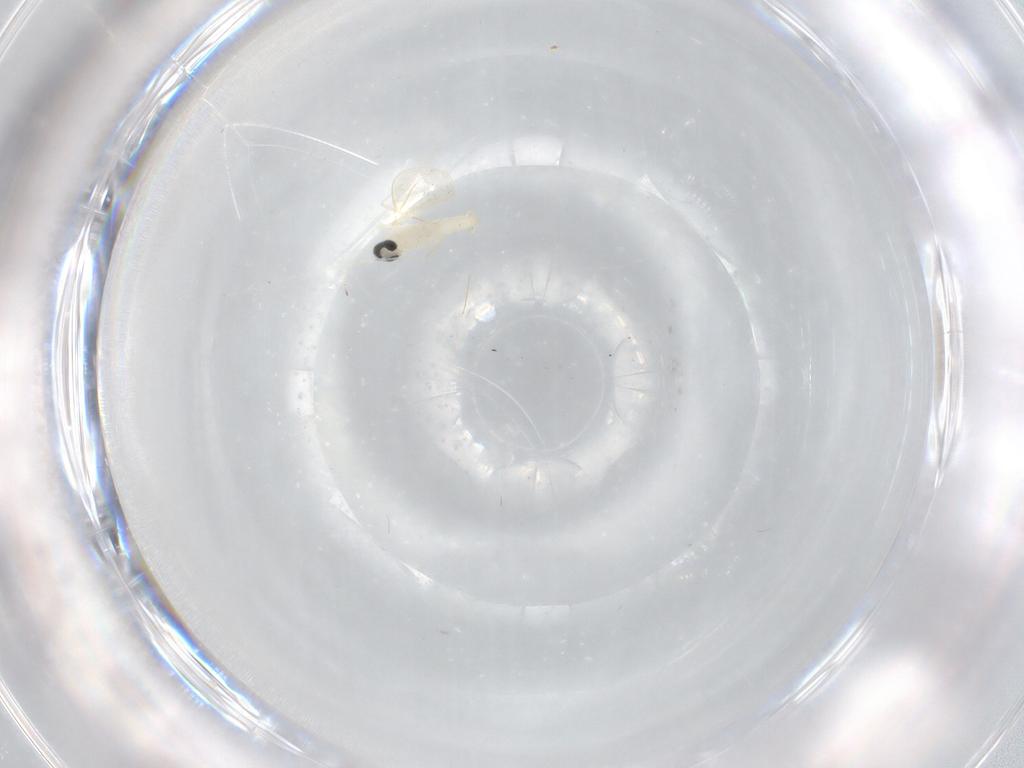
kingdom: Animalia
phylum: Arthropoda
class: Insecta
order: Diptera
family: Cecidomyiidae
